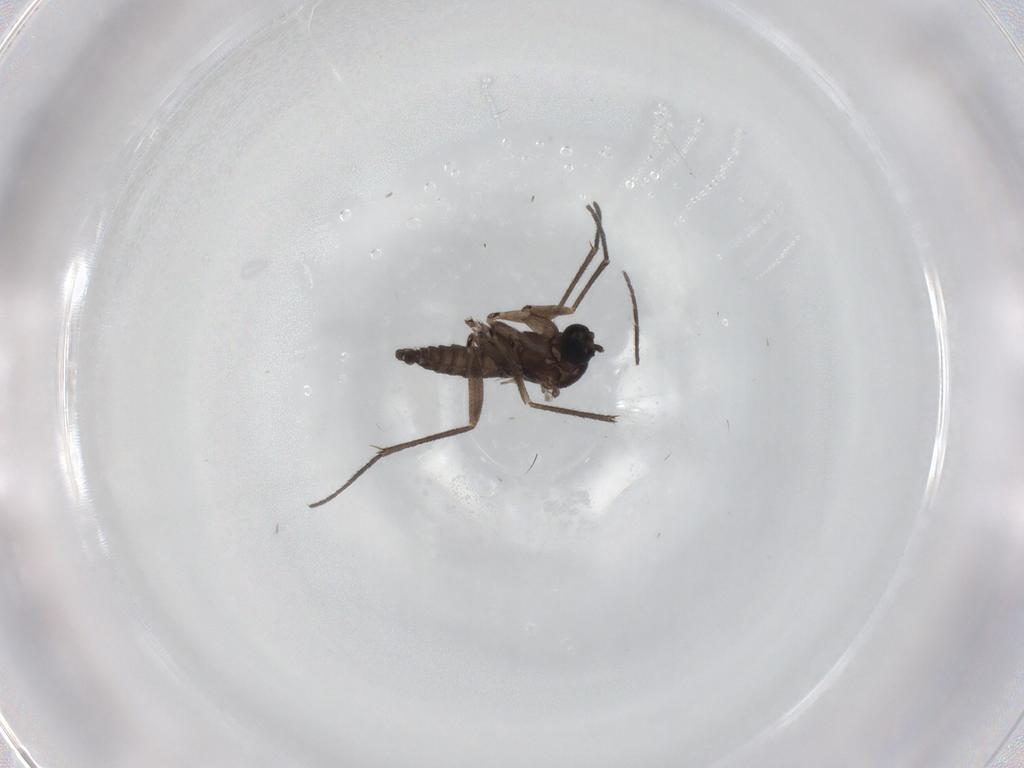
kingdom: Animalia
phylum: Arthropoda
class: Insecta
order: Diptera
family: Sciaridae
